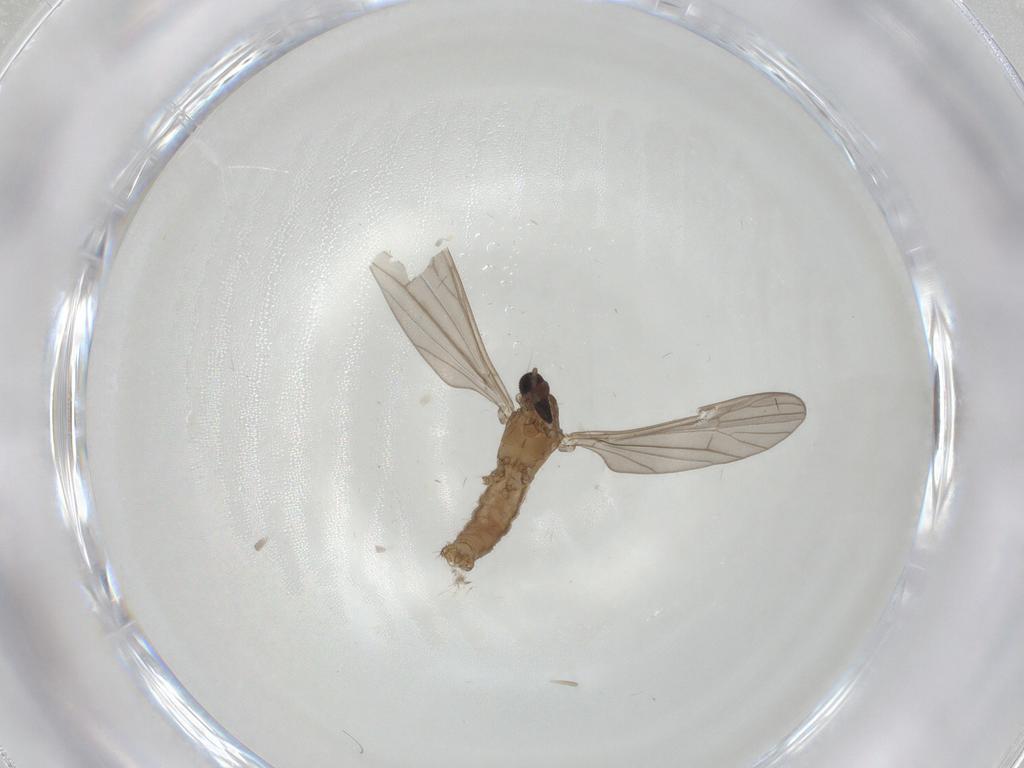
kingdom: Animalia
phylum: Arthropoda
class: Insecta
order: Diptera
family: Limoniidae
